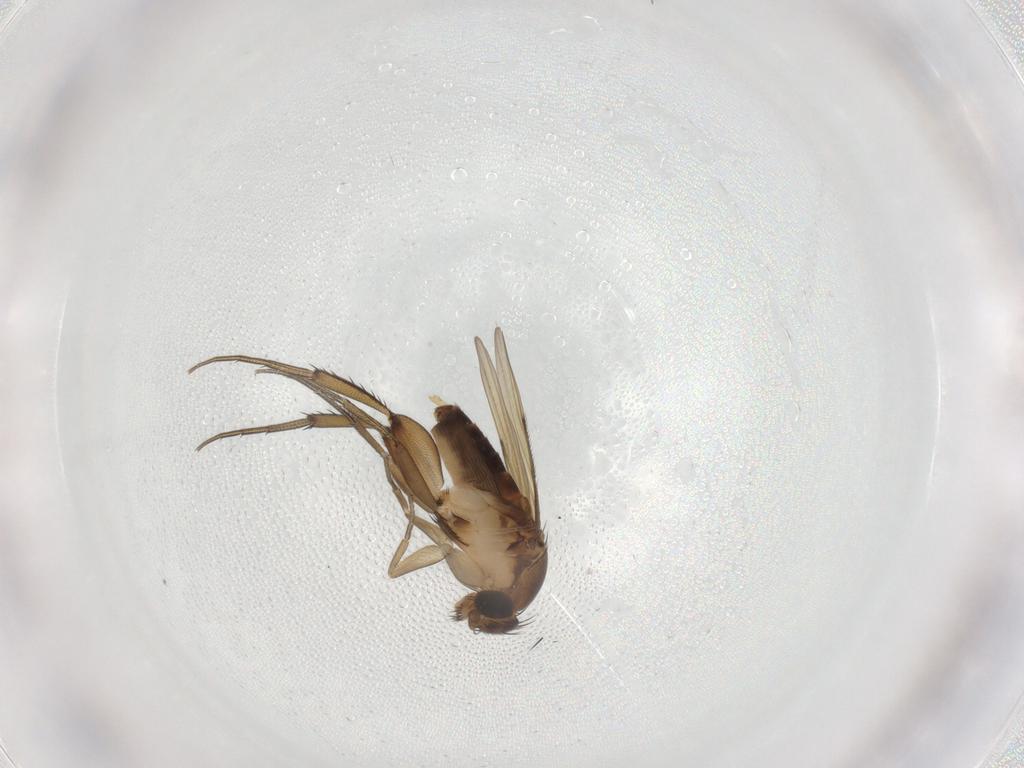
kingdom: Animalia
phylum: Arthropoda
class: Insecta
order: Diptera
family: Phoridae
